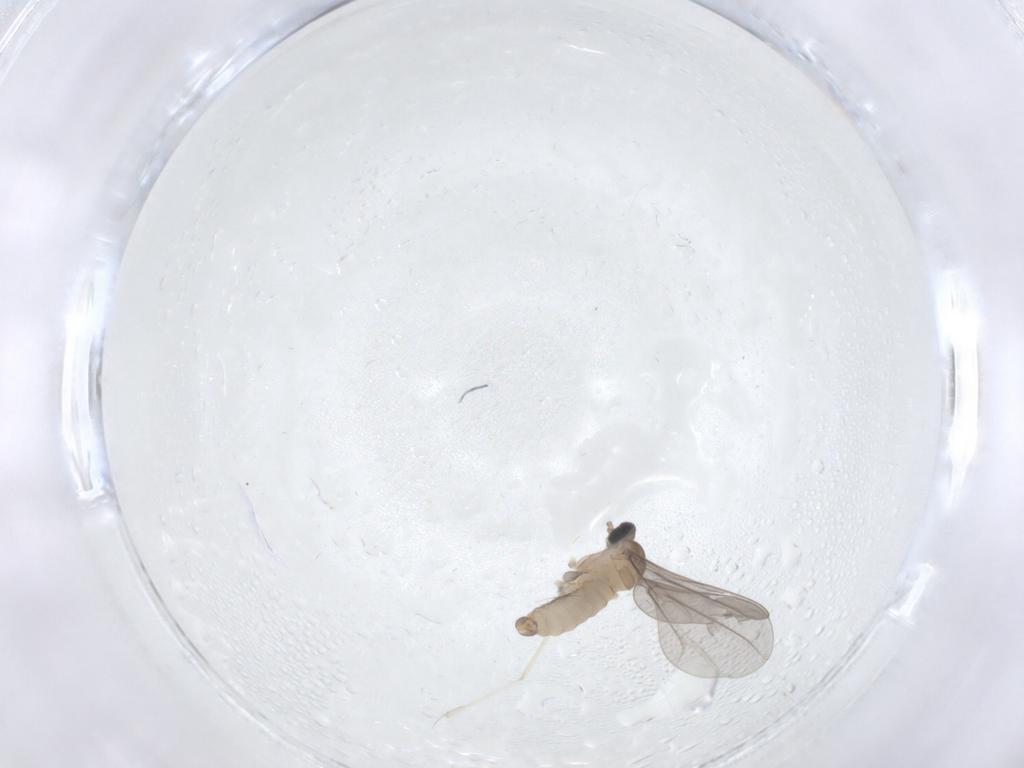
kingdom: Animalia
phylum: Arthropoda
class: Insecta
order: Diptera
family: Cecidomyiidae
